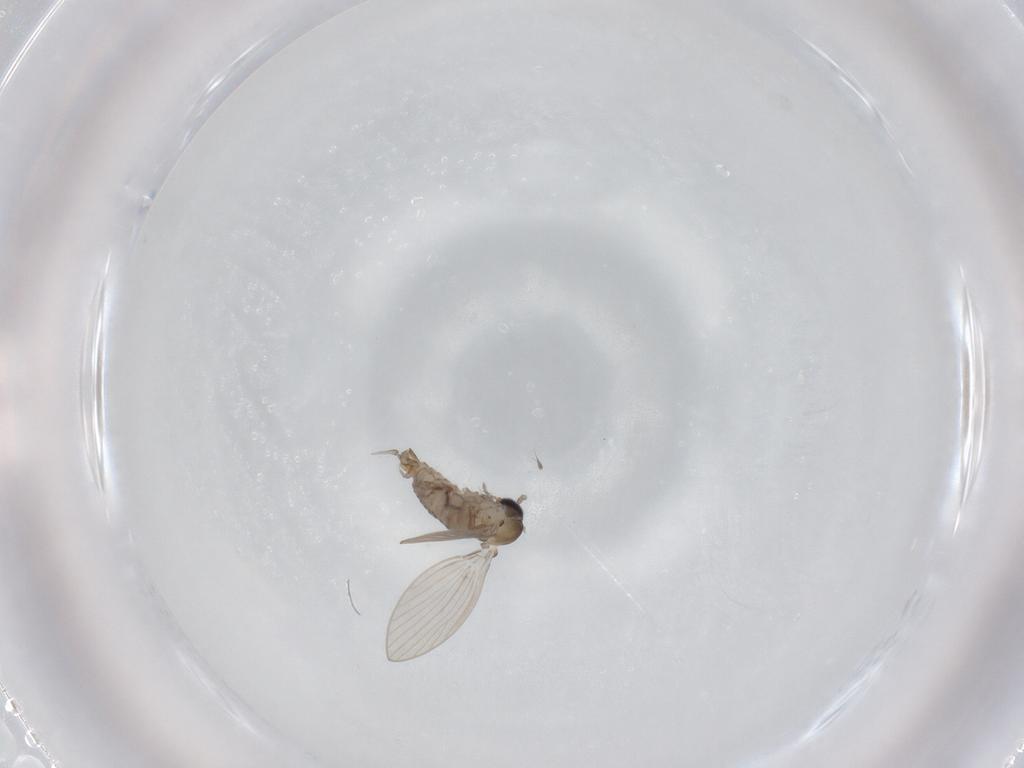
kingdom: Animalia
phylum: Arthropoda
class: Insecta
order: Diptera
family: Psychodidae
